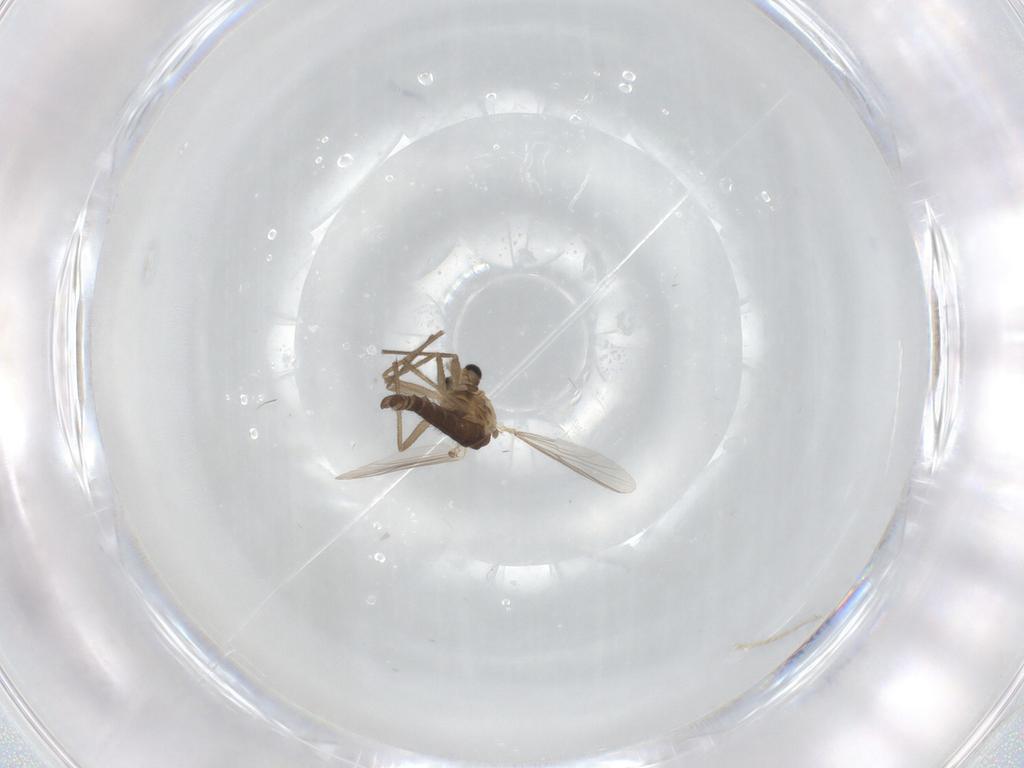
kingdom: Animalia
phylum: Arthropoda
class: Insecta
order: Diptera
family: Chironomidae
